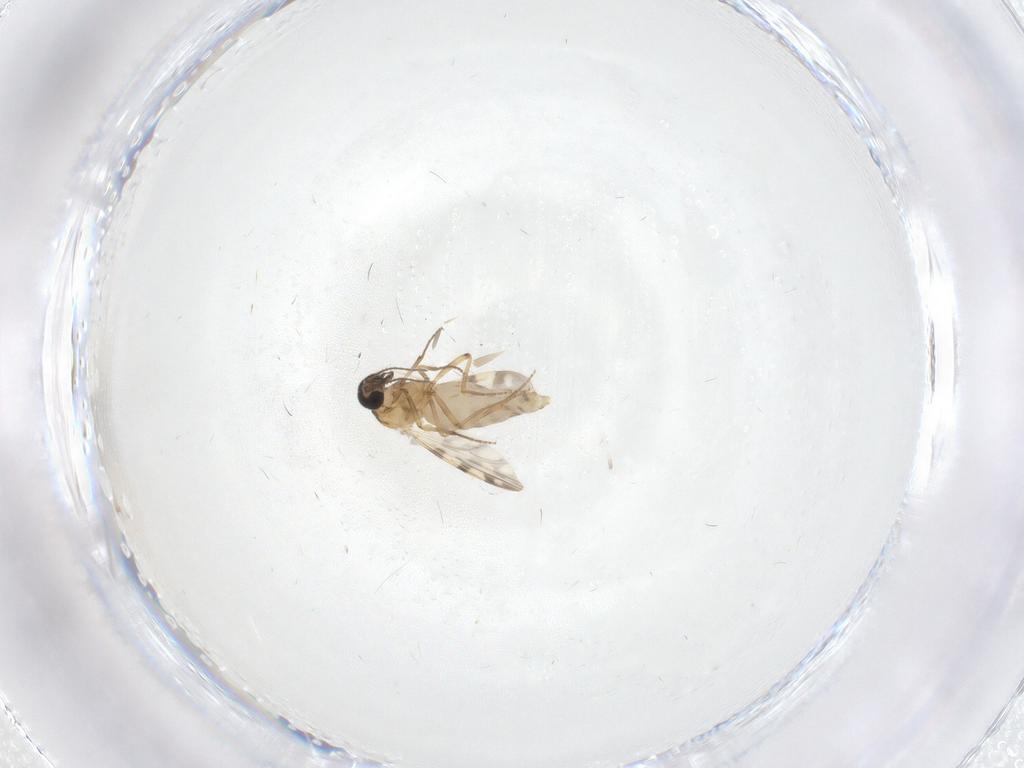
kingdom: Animalia
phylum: Arthropoda
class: Insecta
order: Diptera
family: Ceratopogonidae
